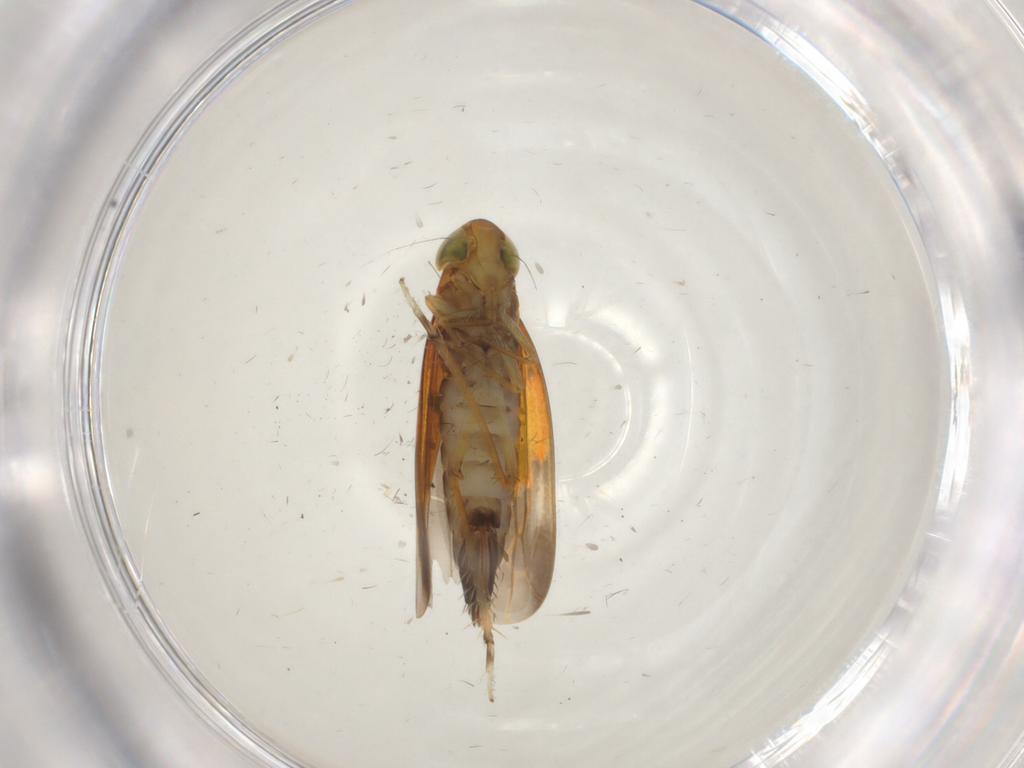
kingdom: Animalia
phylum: Arthropoda
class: Insecta
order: Hemiptera
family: Cicadellidae
